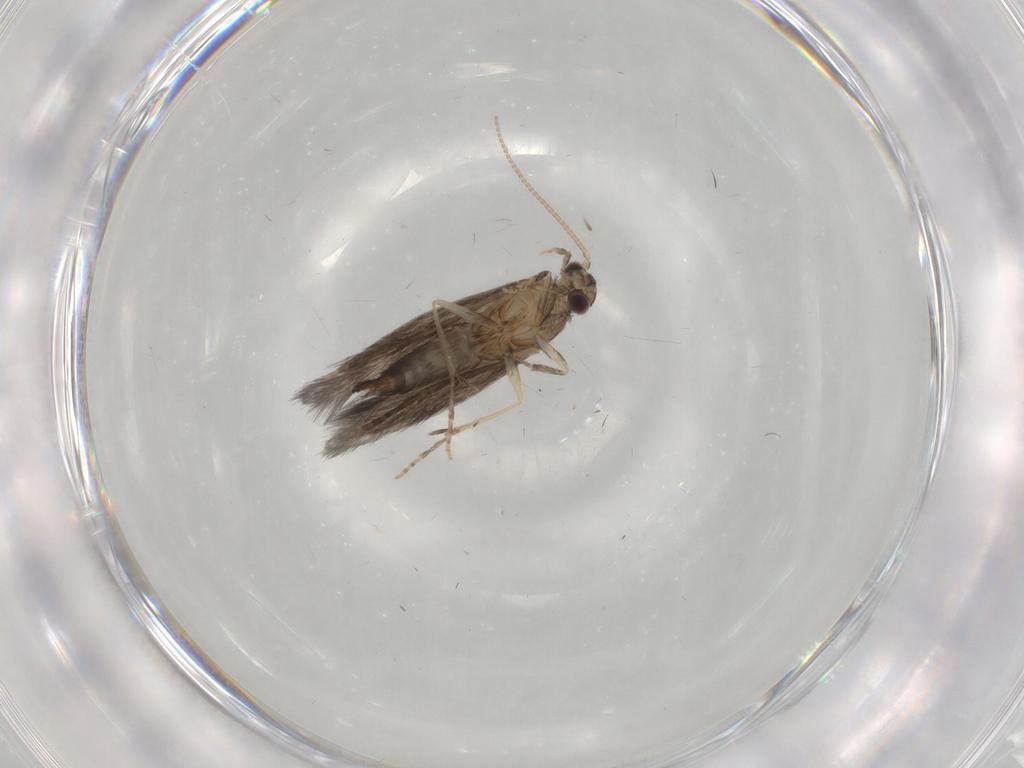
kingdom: Animalia
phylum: Arthropoda
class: Insecta
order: Trichoptera
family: Hydroptilidae
